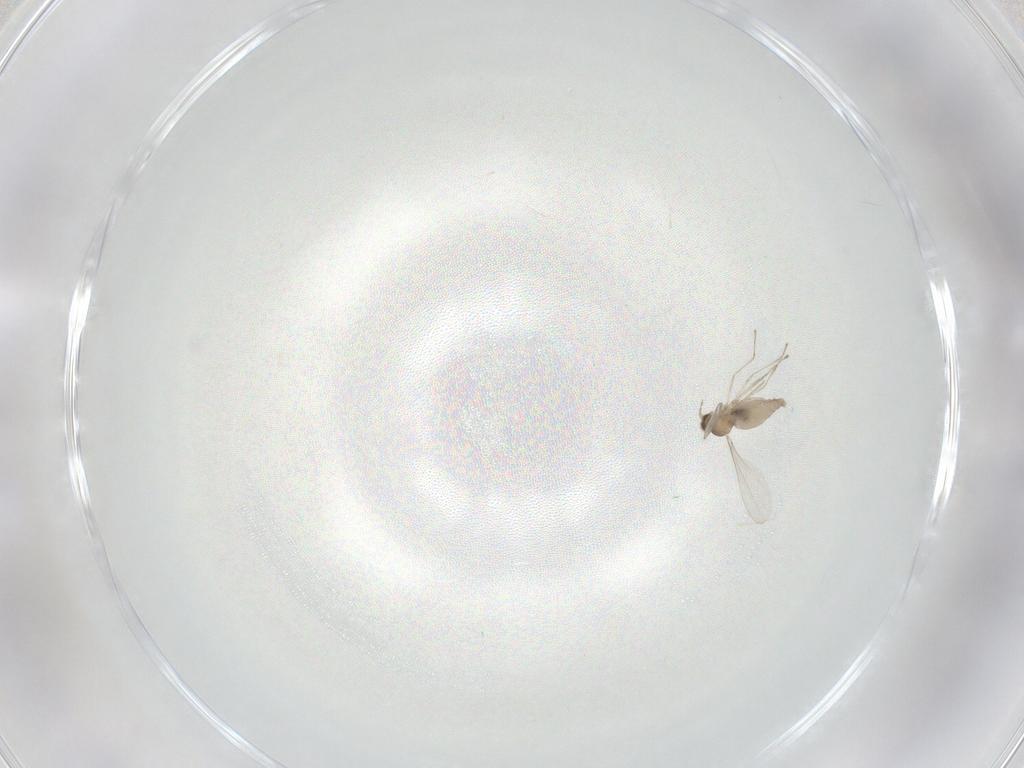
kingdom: Animalia
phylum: Arthropoda
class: Insecta
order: Diptera
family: Cecidomyiidae
